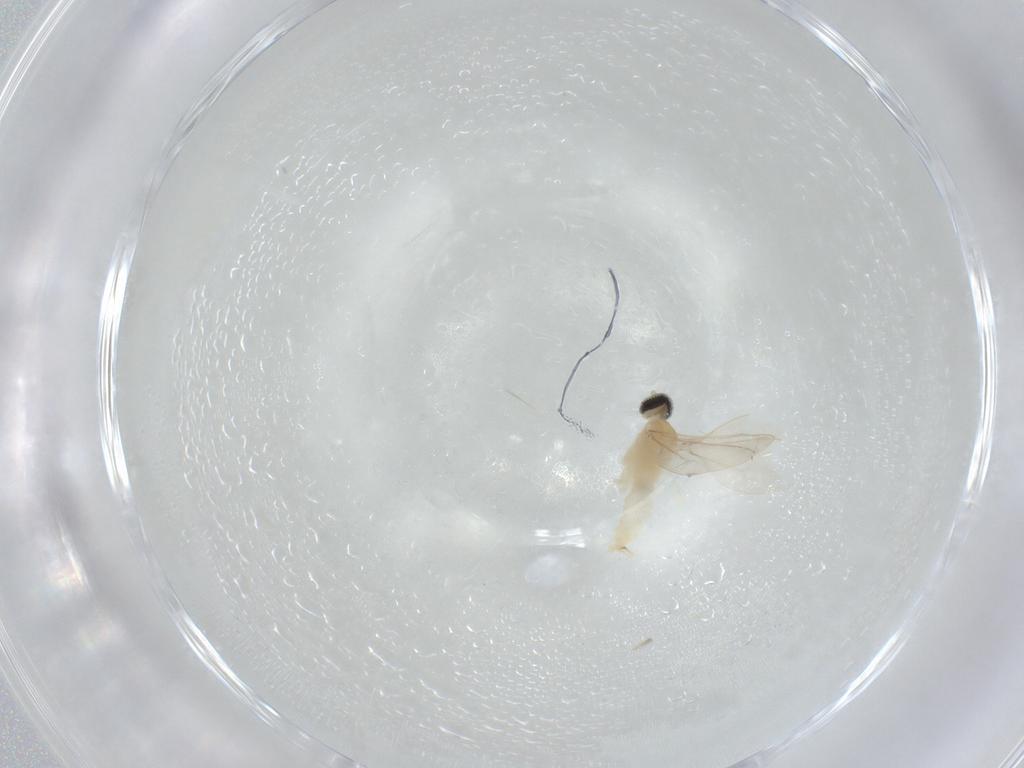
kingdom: Animalia
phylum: Arthropoda
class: Insecta
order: Diptera
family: Cecidomyiidae
